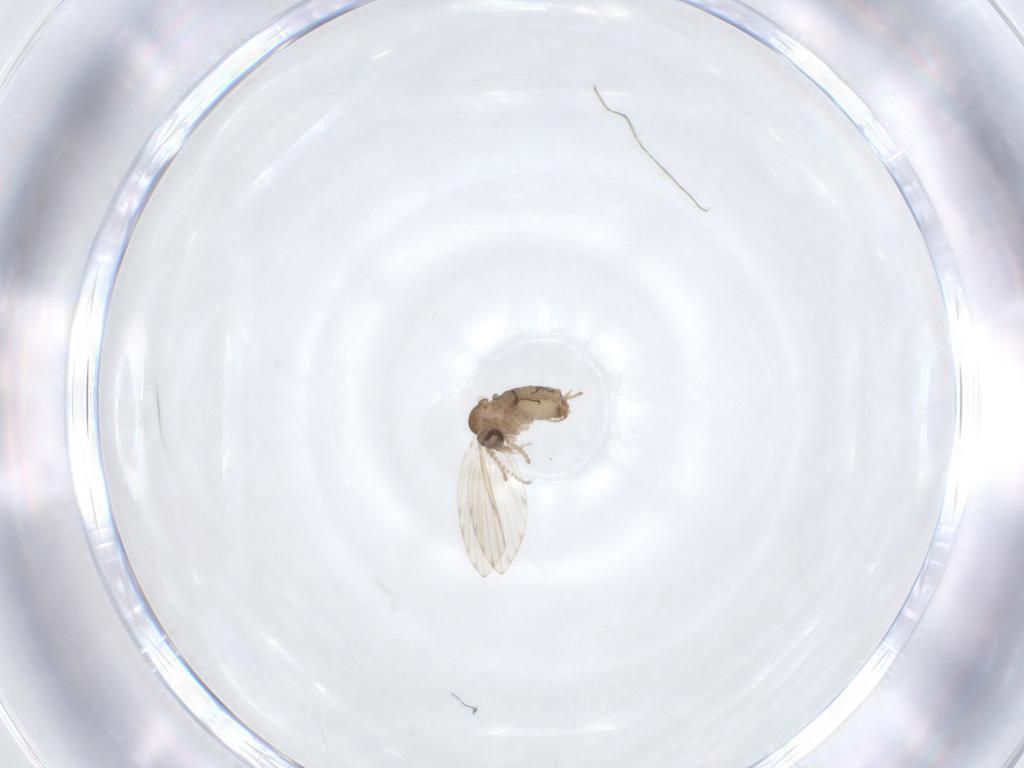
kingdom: Animalia
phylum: Arthropoda
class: Insecta
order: Diptera
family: Psychodidae
